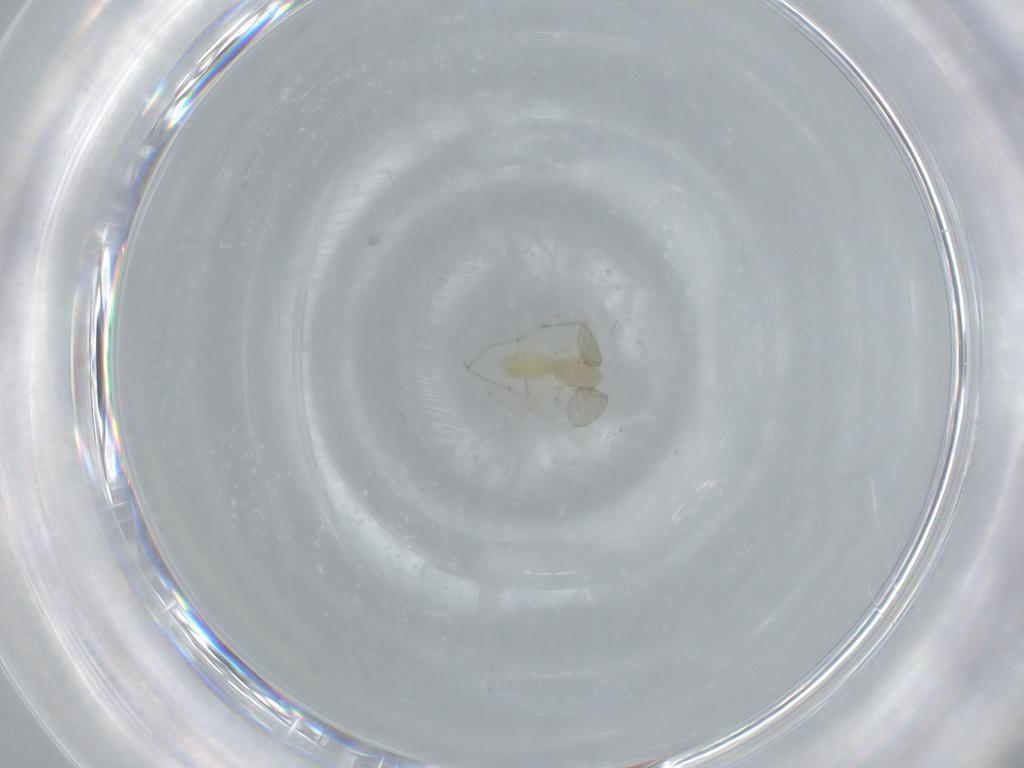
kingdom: Animalia
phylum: Arthropoda
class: Insecta
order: Diptera
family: Chironomidae
